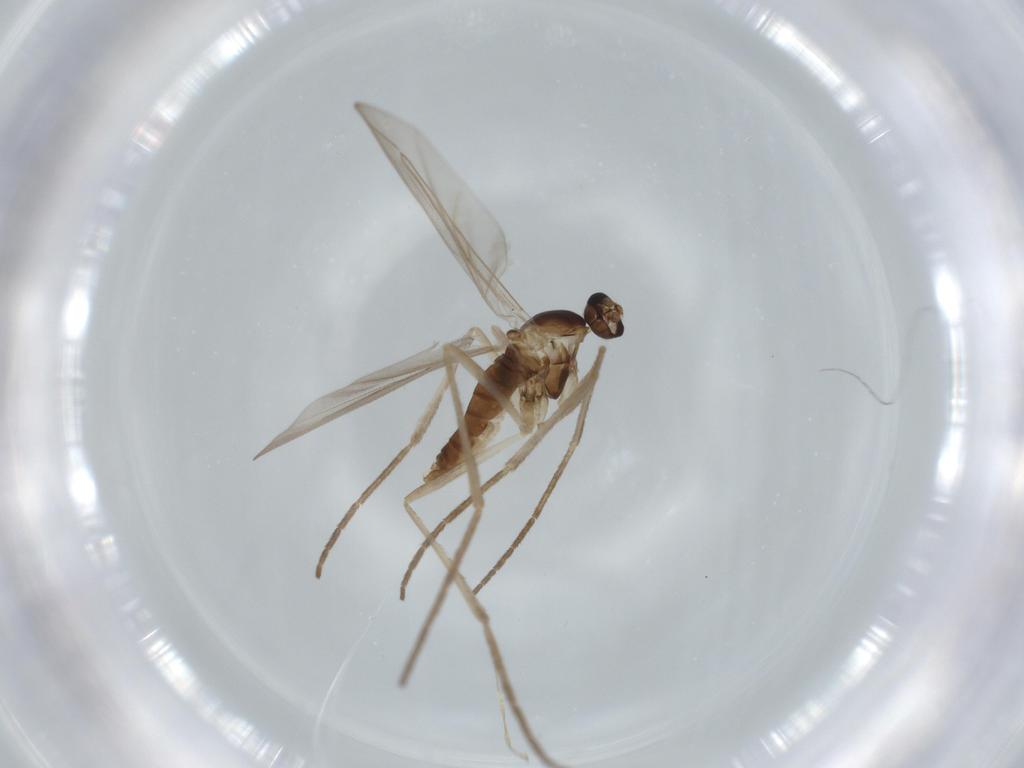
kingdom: Animalia
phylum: Arthropoda
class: Insecta
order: Diptera
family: Cecidomyiidae
